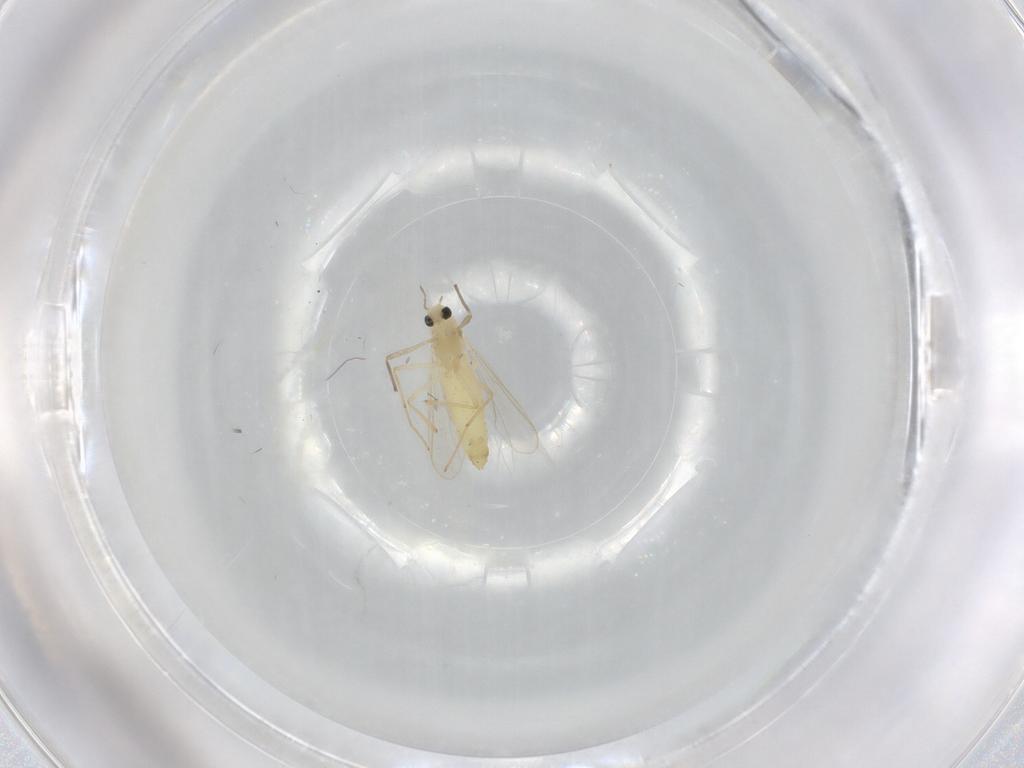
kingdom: Animalia
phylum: Arthropoda
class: Insecta
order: Diptera
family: Chironomidae
